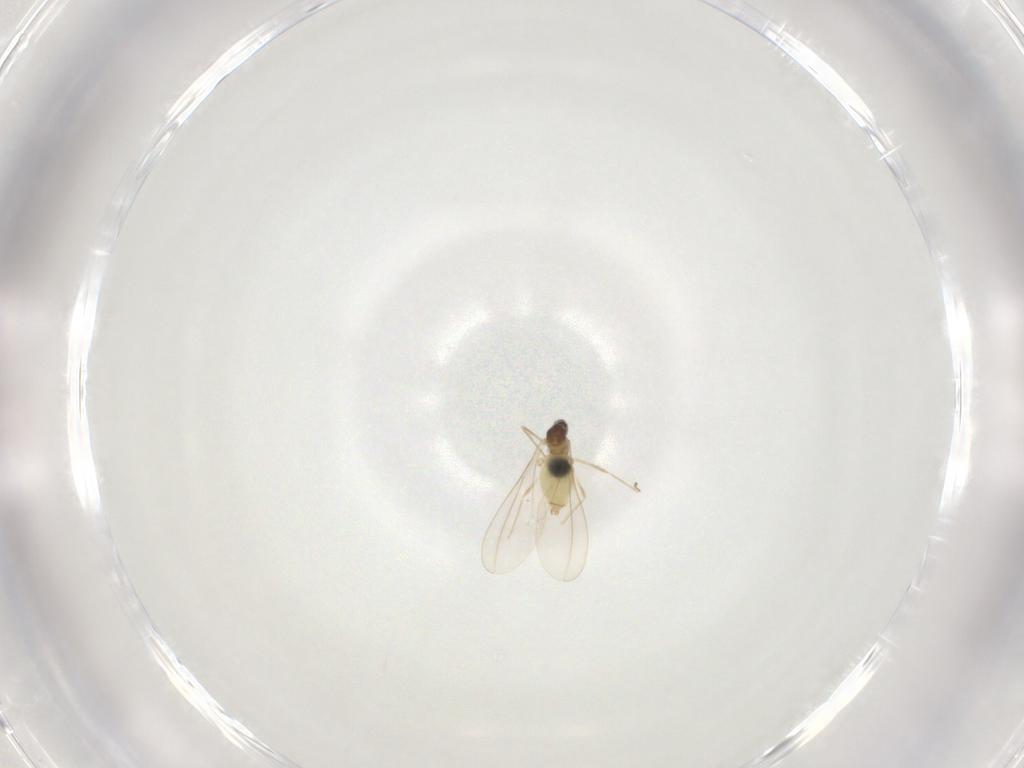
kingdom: Animalia
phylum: Arthropoda
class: Insecta
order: Diptera
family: Cecidomyiidae
